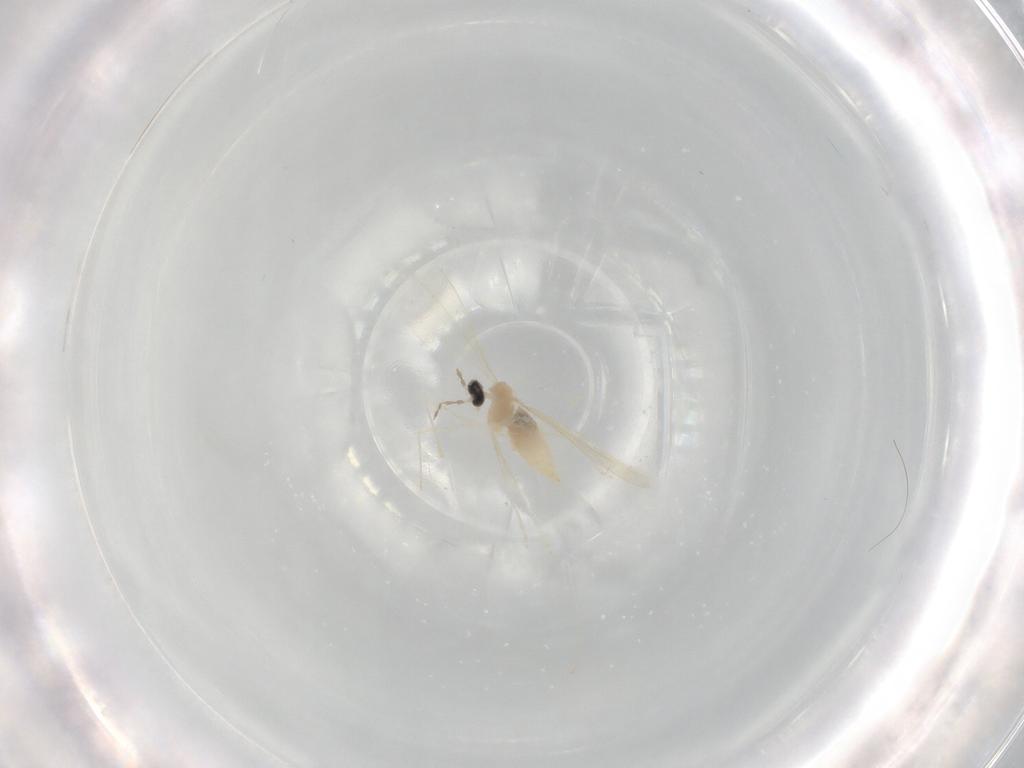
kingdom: Animalia
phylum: Arthropoda
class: Insecta
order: Diptera
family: Cecidomyiidae
